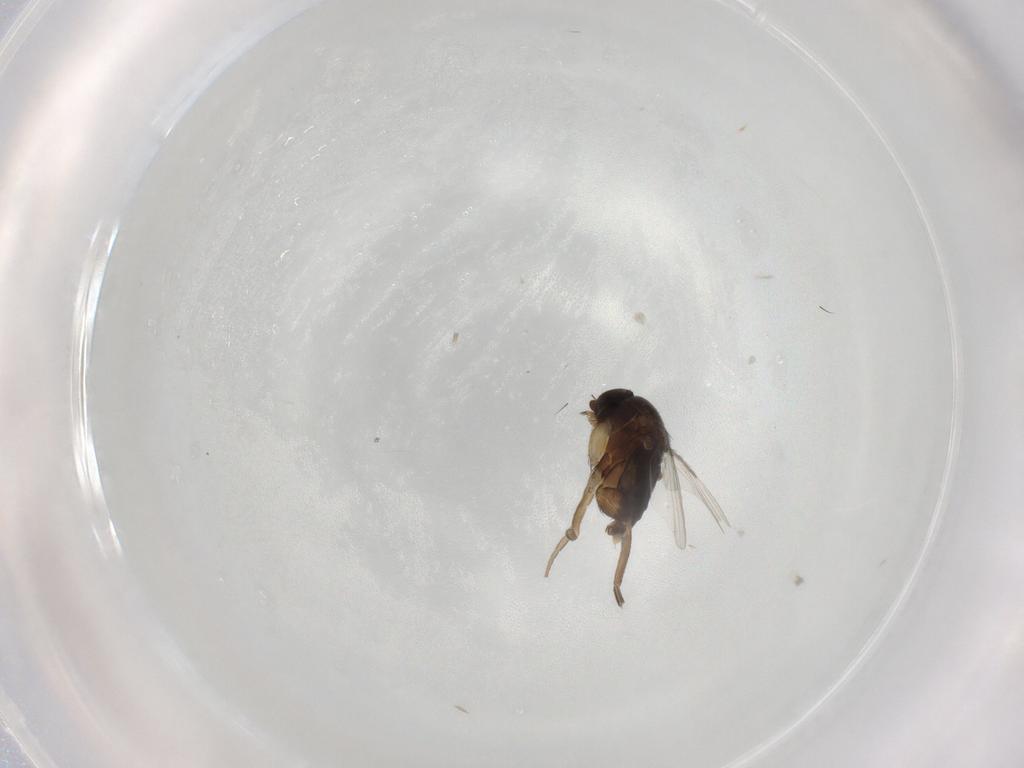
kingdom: Animalia
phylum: Arthropoda
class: Insecta
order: Diptera
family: Phoridae
